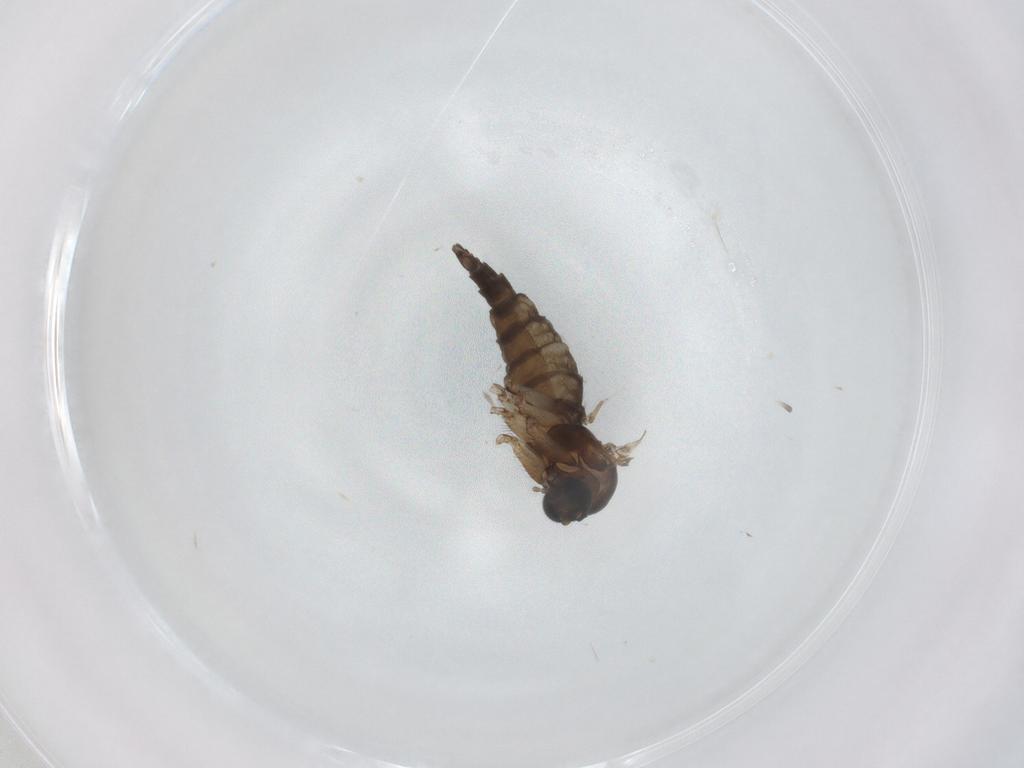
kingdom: Animalia
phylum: Arthropoda
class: Insecta
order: Diptera
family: Sciaridae
